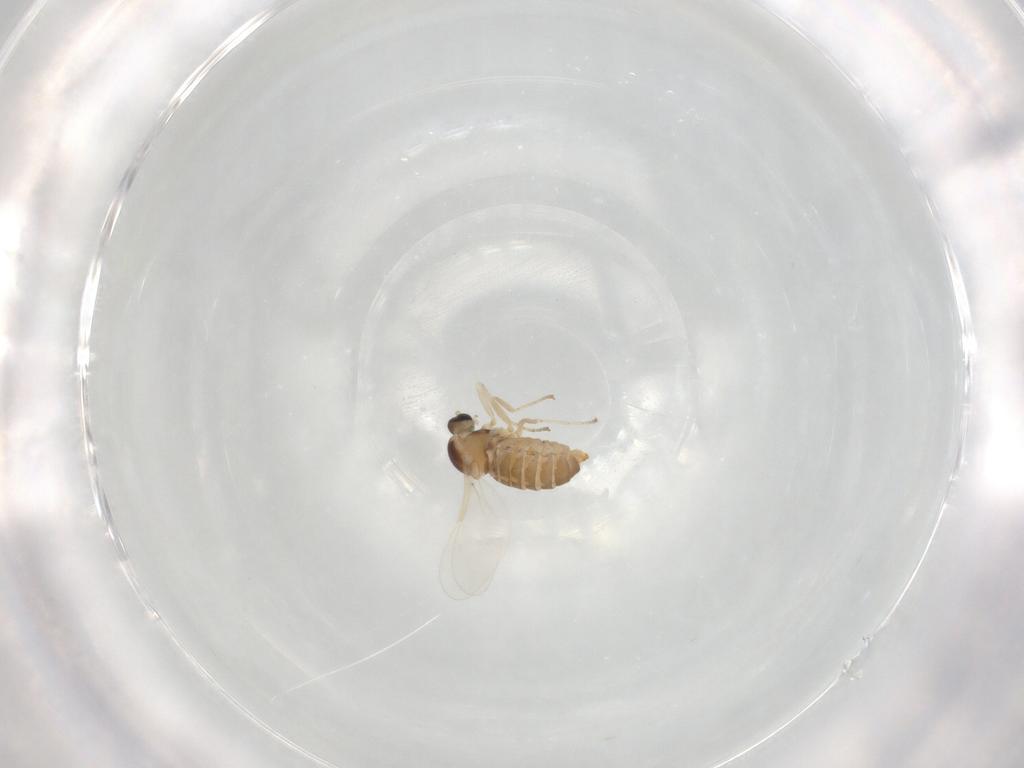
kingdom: Animalia
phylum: Arthropoda
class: Insecta
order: Diptera
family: Cecidomyiidae
